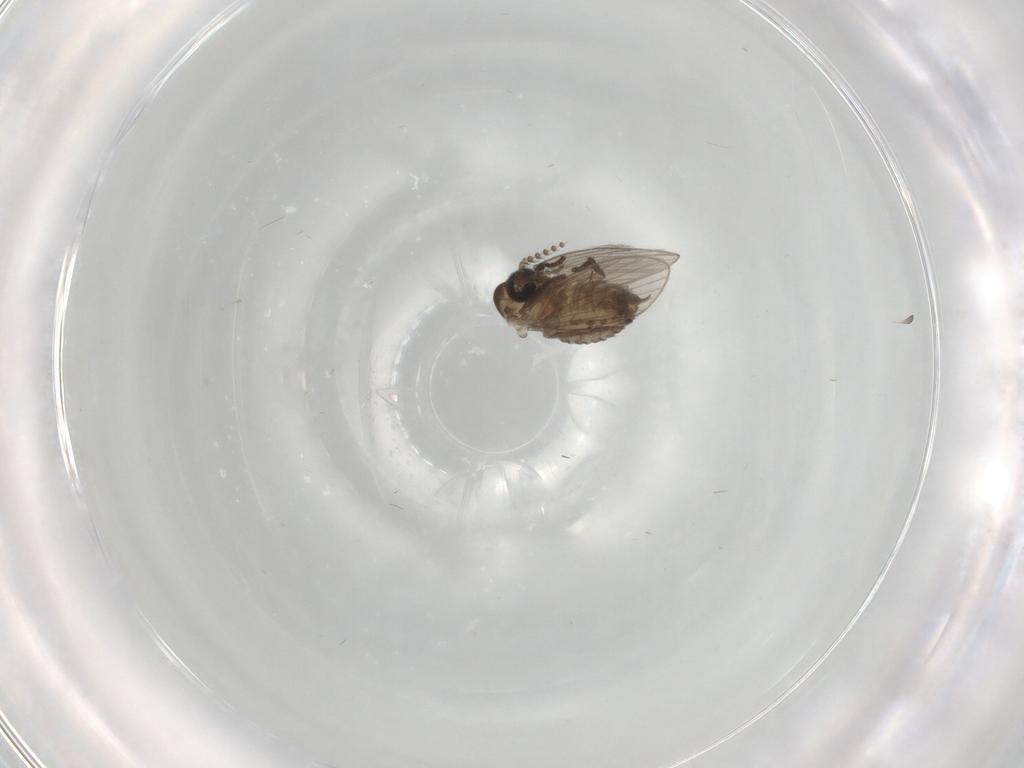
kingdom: Animalia
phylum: Arthropoda
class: Insecta
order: Diptera
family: Psychodidae
